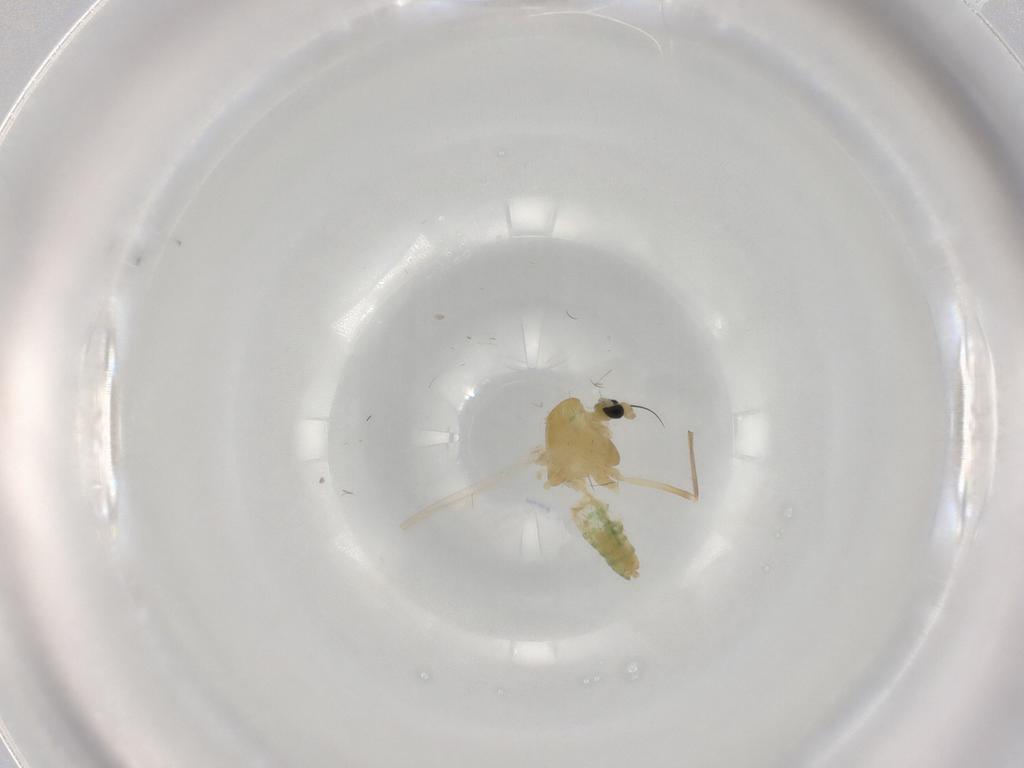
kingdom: Animalia
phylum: Arthropoda
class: Insecta
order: Diptera
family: Chironomidae
